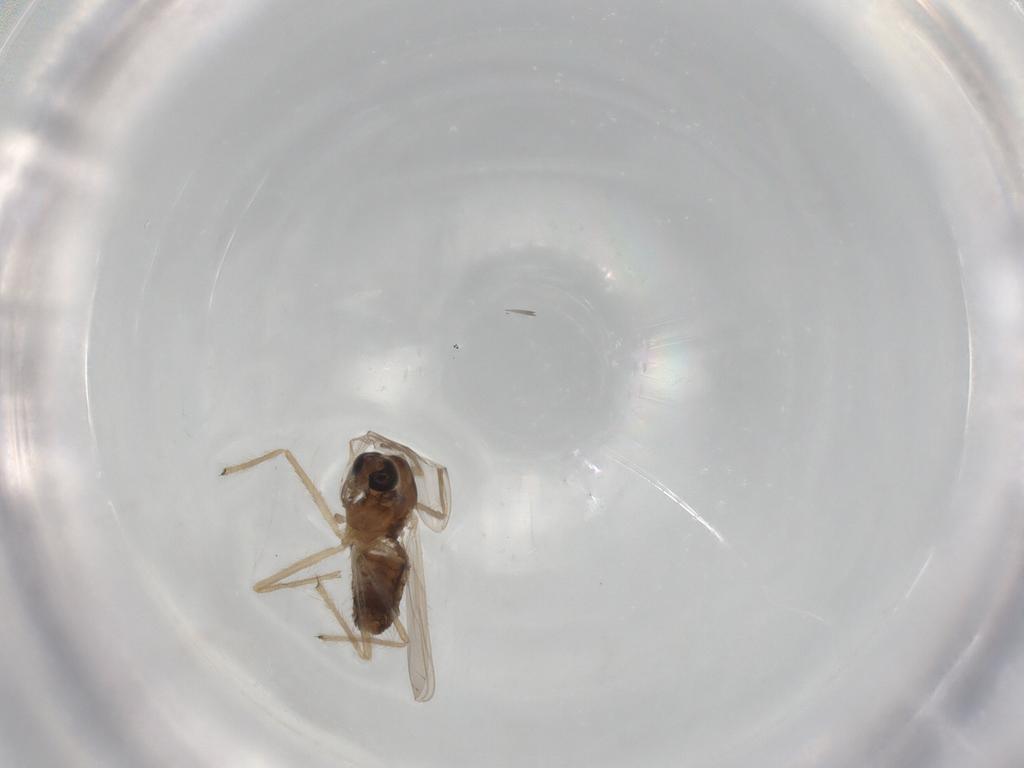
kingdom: Animalia
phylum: Arthropoda
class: Insecta
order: Diptera
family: Chironomidae
